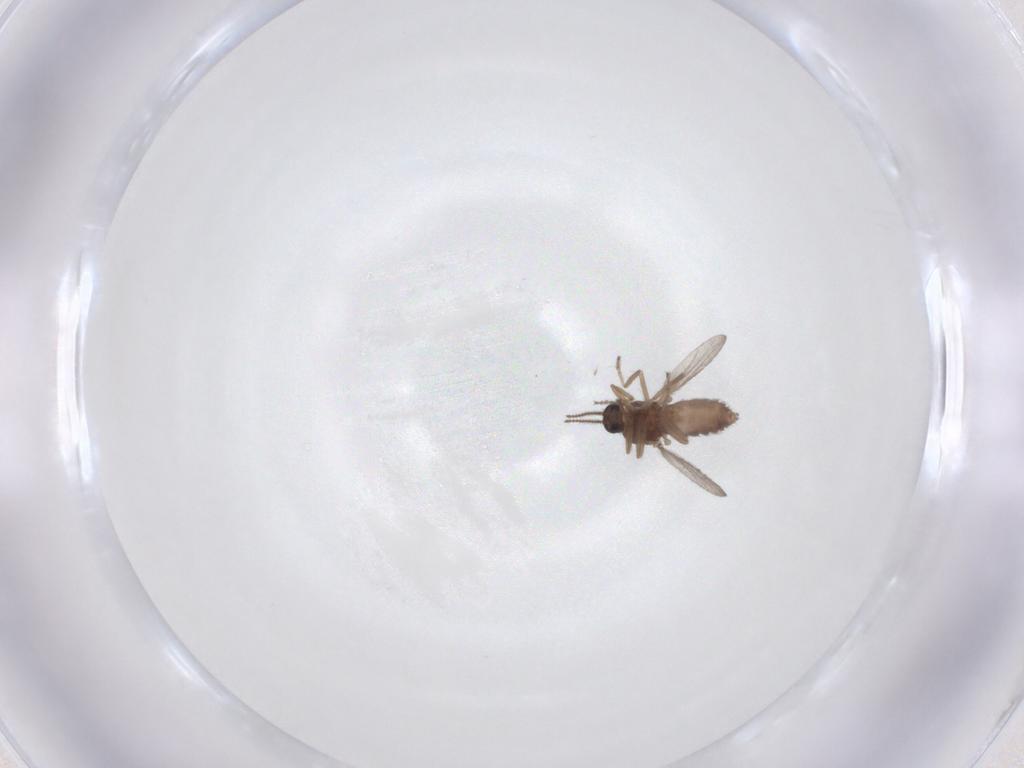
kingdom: Animalia
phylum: Arthropoda
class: Insecta
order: Diptera
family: Ceratopogonidae
